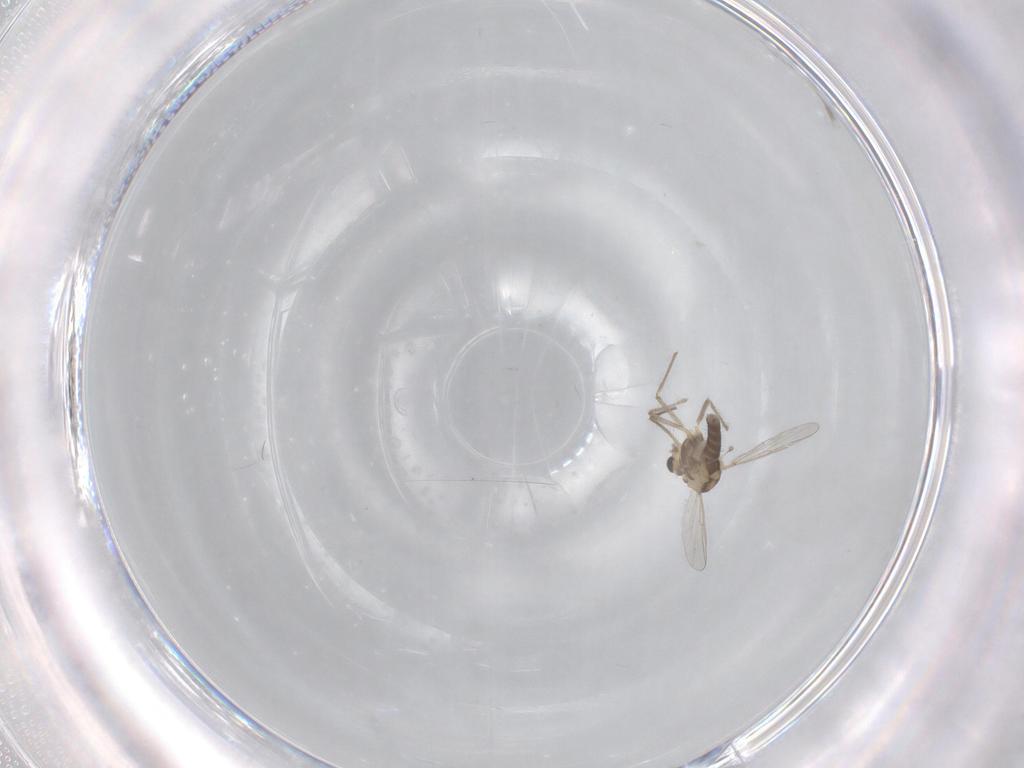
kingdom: Animalia
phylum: Arthropoda
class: Insecta
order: Diptera
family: Chironomidae
